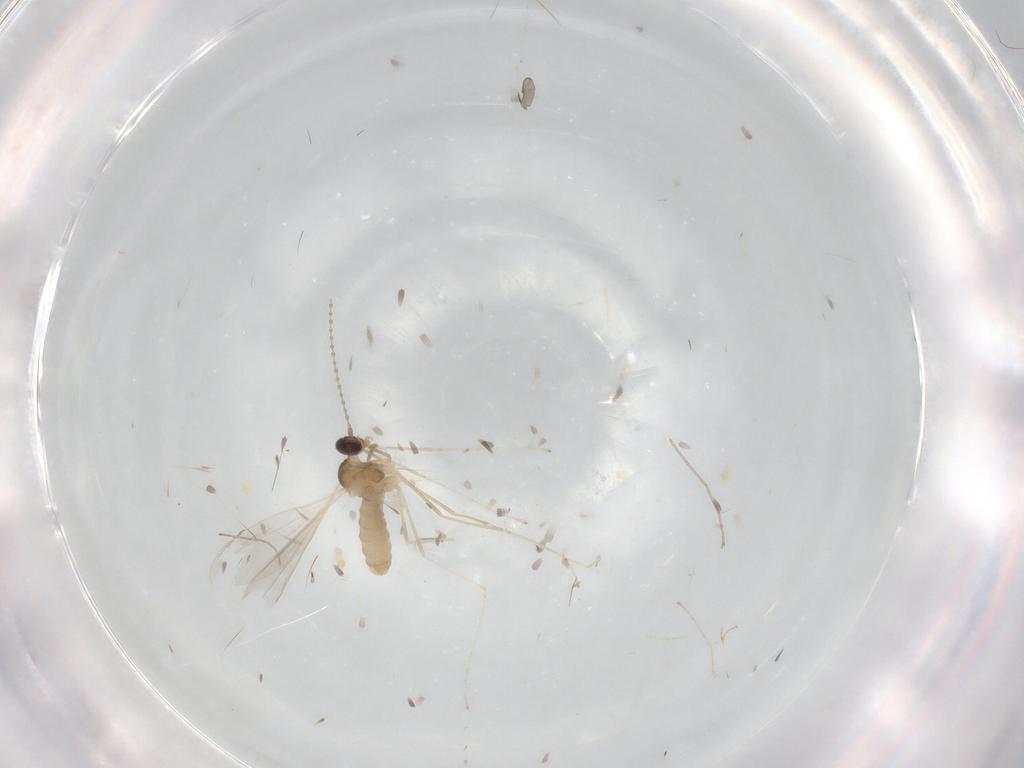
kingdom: Animalia
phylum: Arthropoda
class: Insecta
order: Diptera
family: Cecidomyiidae
